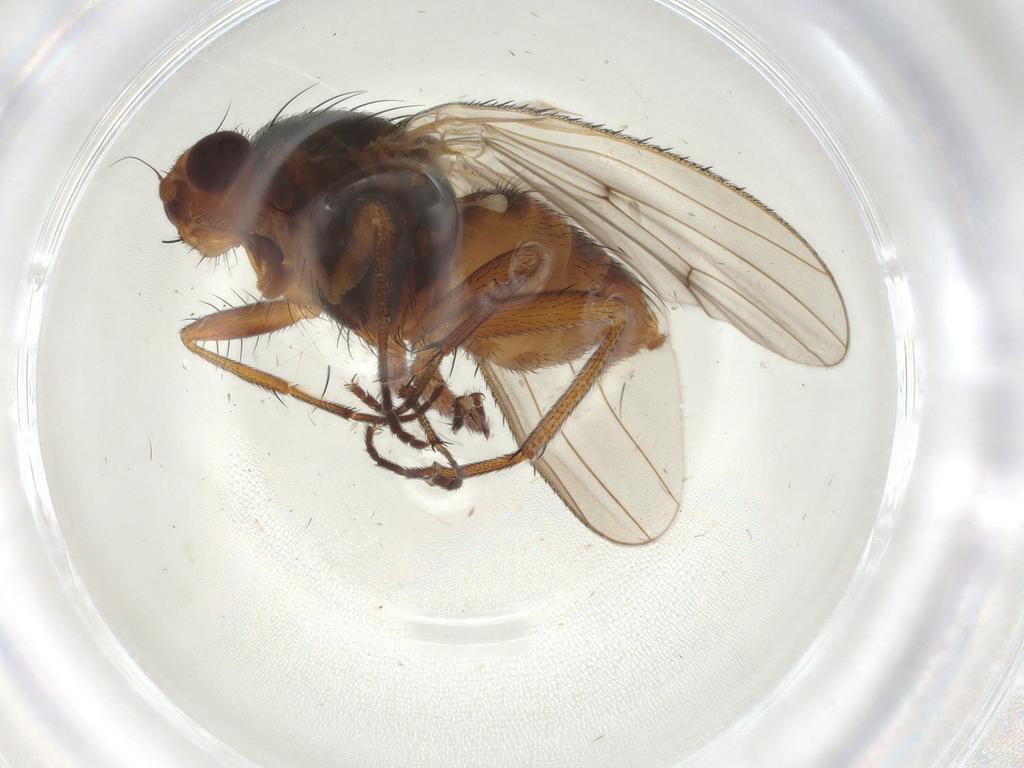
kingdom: Animalia
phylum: Arthropoda
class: Insecta
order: Diptera
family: Heleomyzidae
